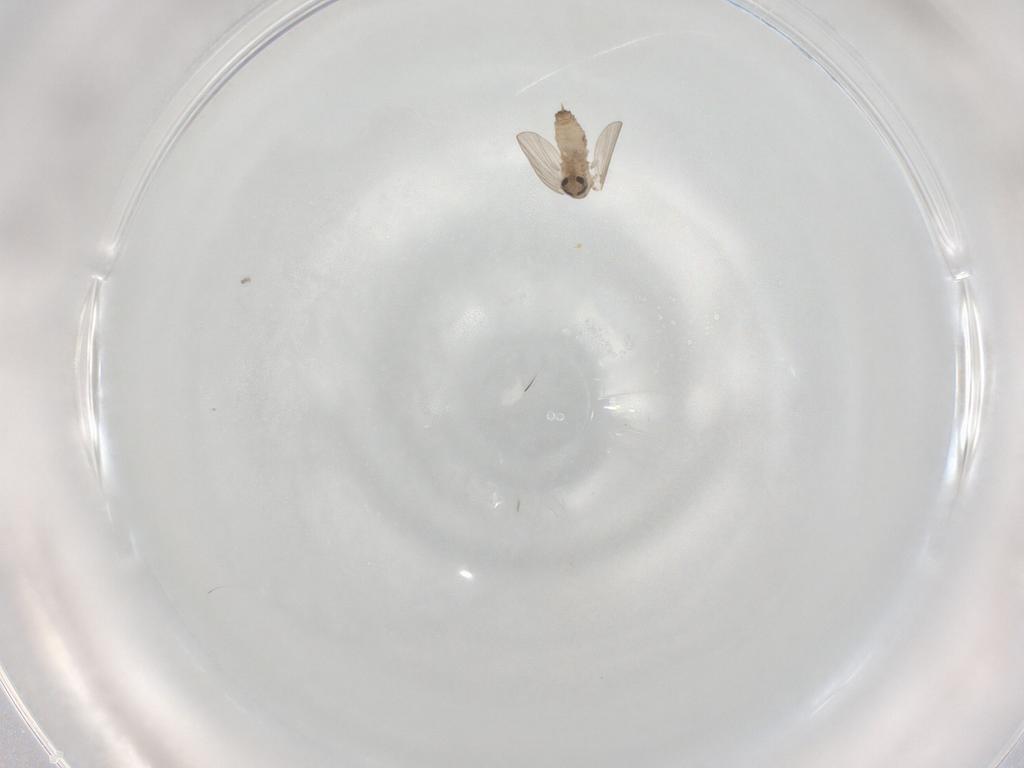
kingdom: Animalia
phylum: Arthropoda
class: Insecta
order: Diptera
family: Psychodidae
